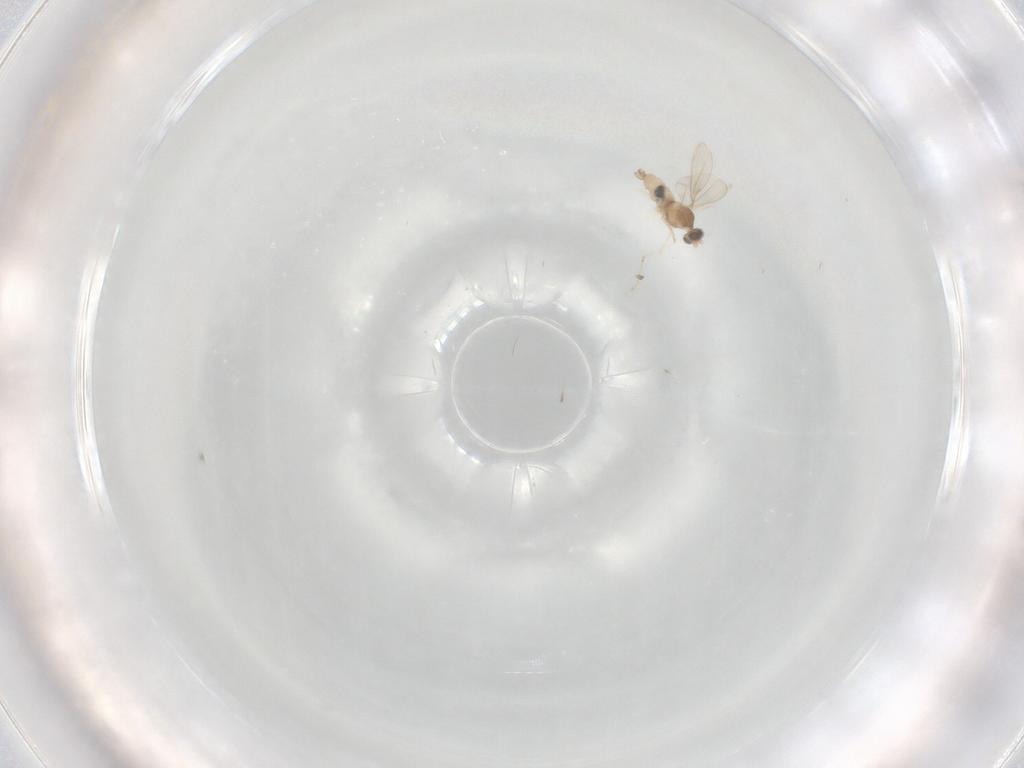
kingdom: Animalia
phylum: Arthropoda
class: Insecta
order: Diptera
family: Cecidomyiidae
